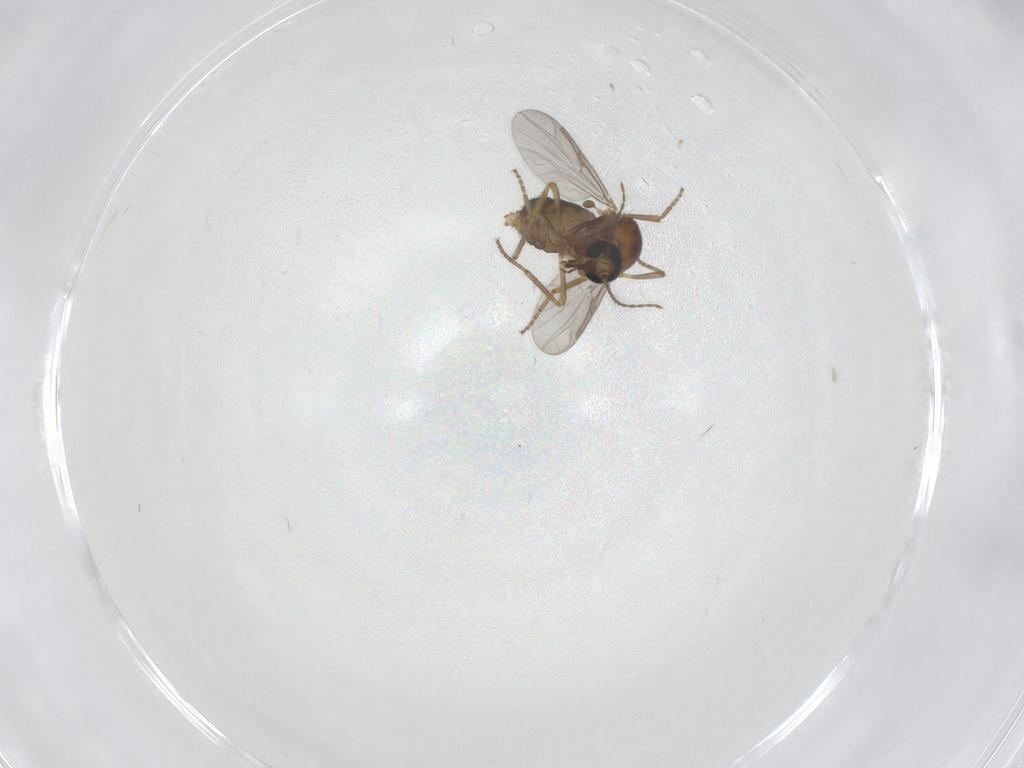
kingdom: Animalia
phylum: Arthropoda
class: Insecta
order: Diptera
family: Ceratopogonidae
